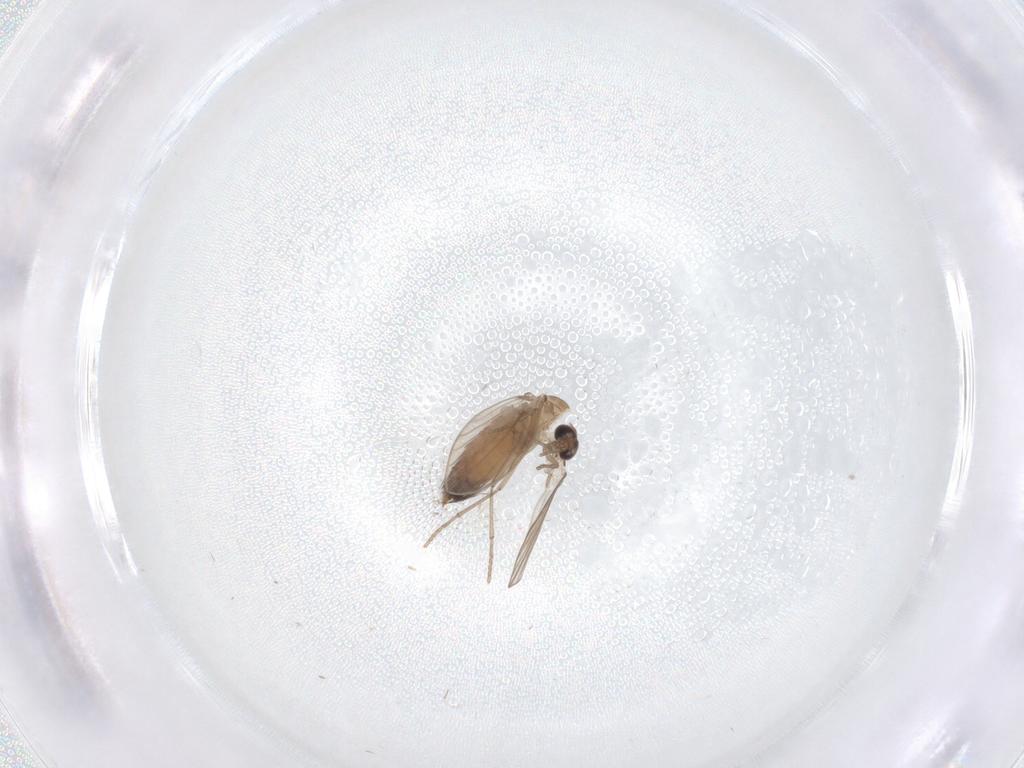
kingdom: Animalia
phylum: Arthropoda
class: Insecta
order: Diptera
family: Psychodidae
